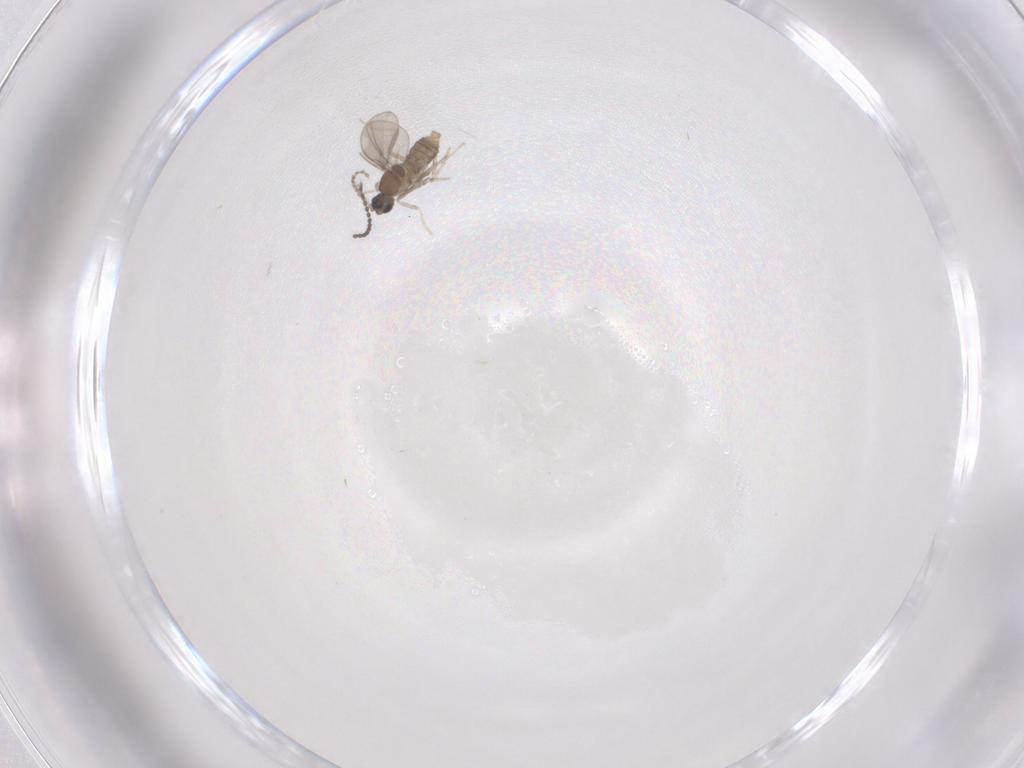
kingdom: Animalia
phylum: Arthropoda
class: Insecta
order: Diptera
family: Cecidomyiidae
